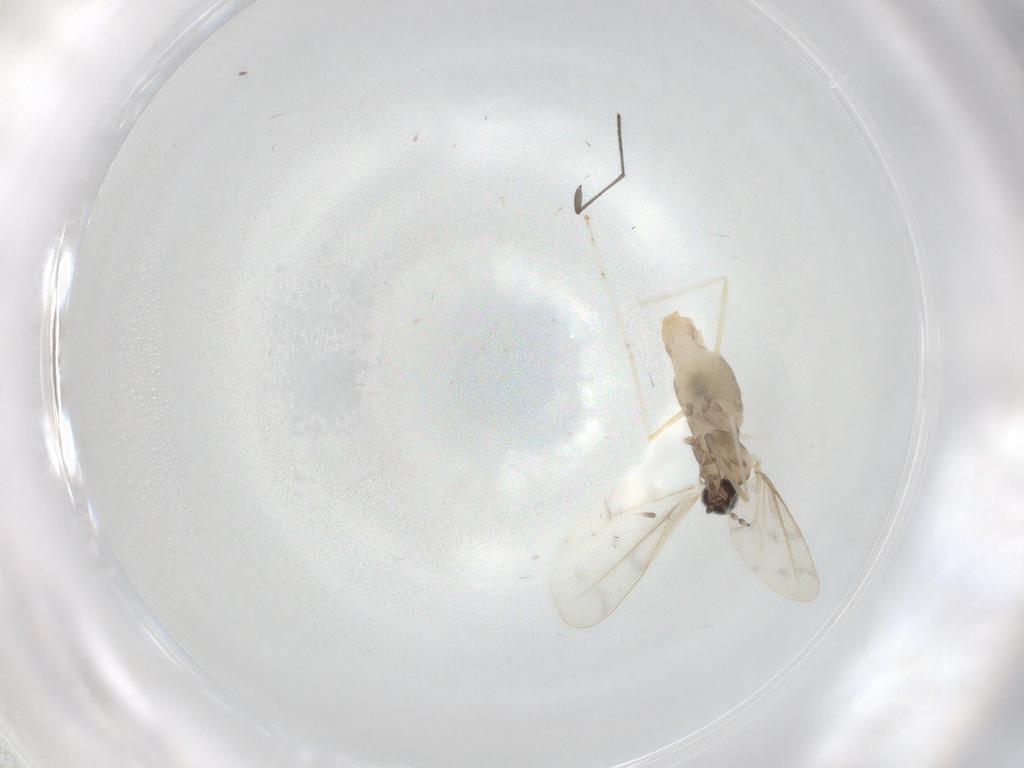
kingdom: Animalia
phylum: Arthropoda
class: Insecta
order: Diptera
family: Cecidomyiidae
